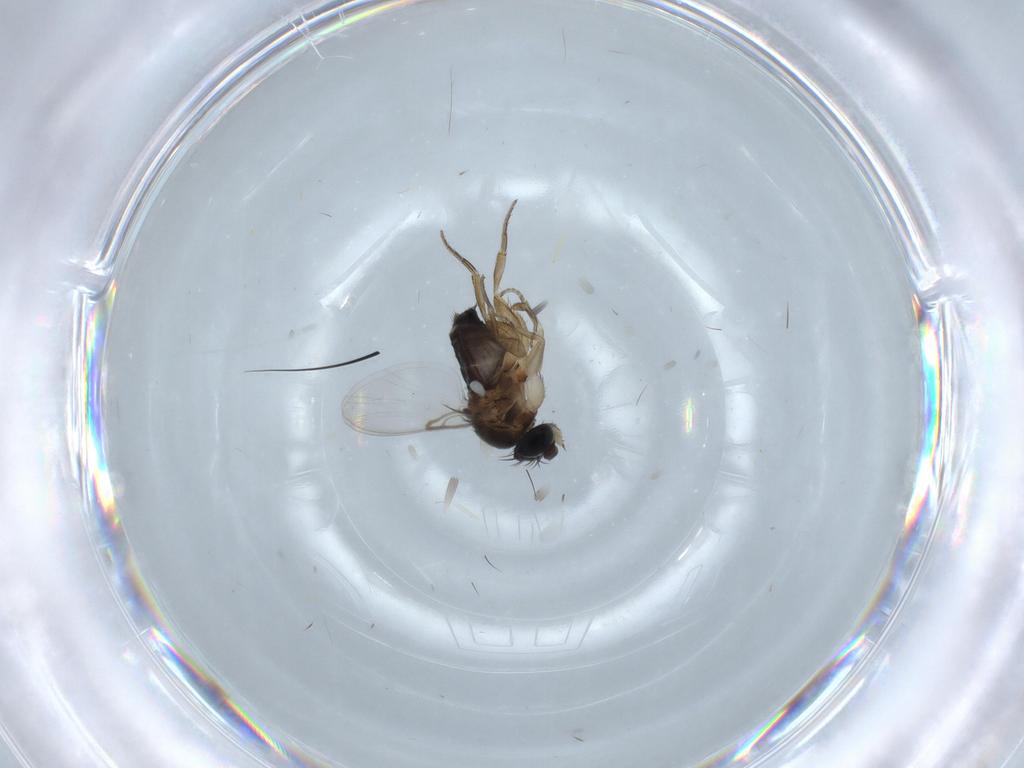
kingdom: Animalia
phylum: Arthropoda
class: Insecta
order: Diptera
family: Phoridae
